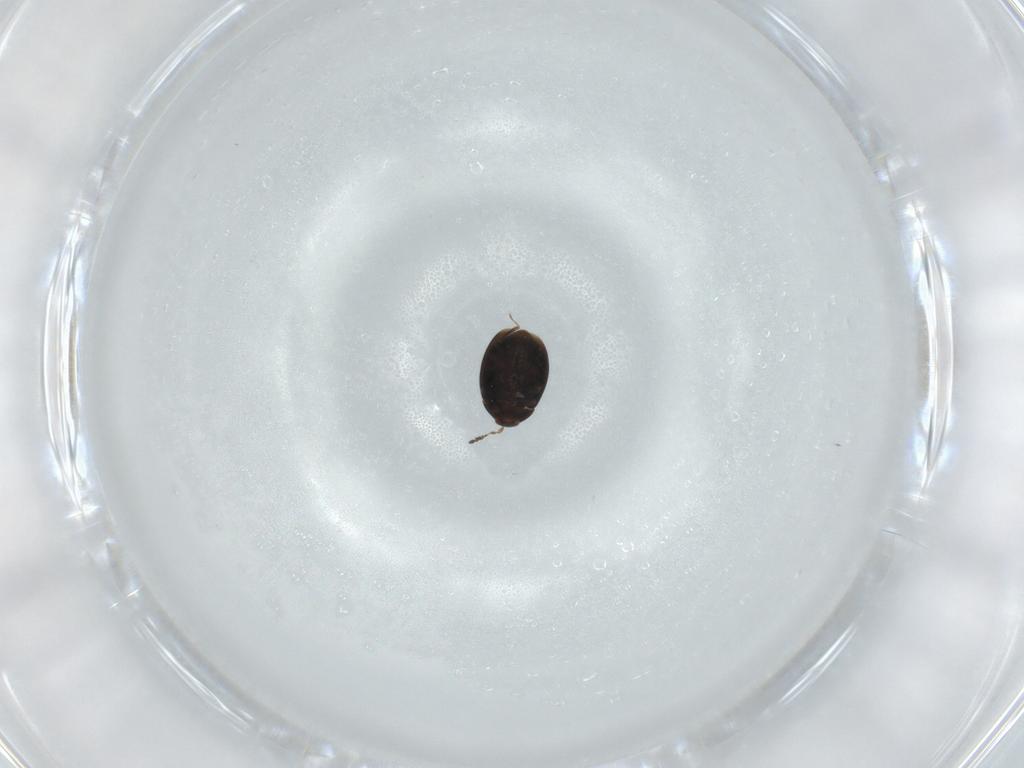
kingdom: Animalia
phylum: Arthropoda
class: Insecta
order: Coleoptera
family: Corylophidae
